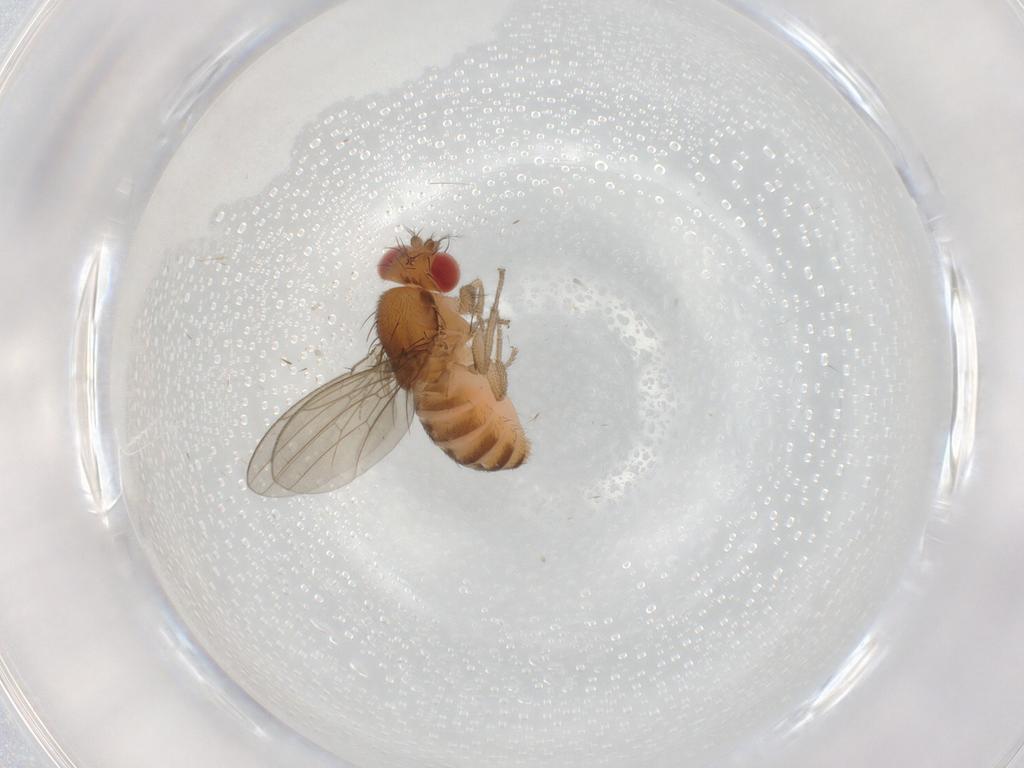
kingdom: Animalia
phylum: Arthropoda
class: Insecta
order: Diptera
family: Drosophilidae
